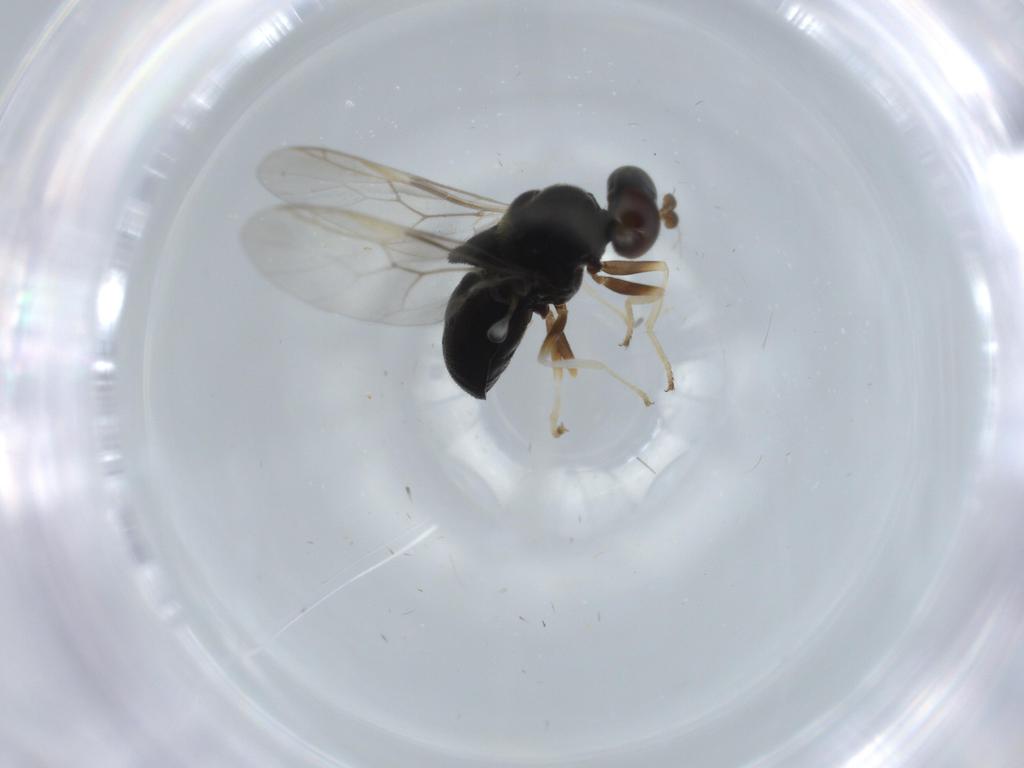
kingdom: Animalia
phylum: Arthropoda
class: Insecta
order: Diptera
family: Stratiomyidae
